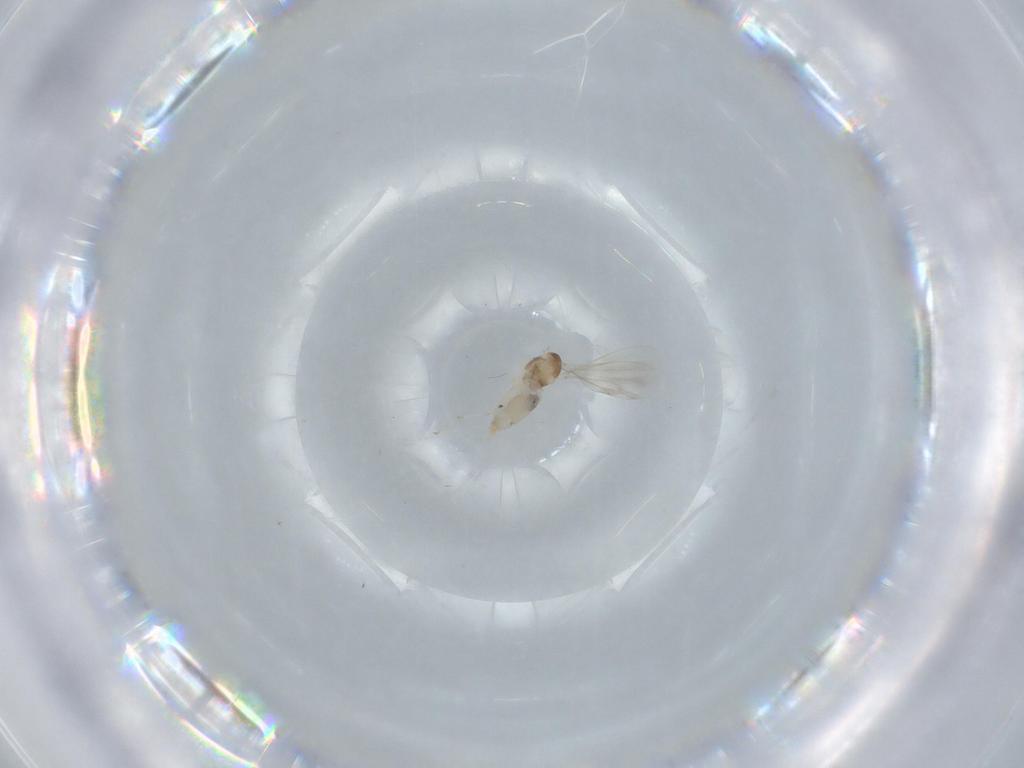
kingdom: Animalia
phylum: Arthropoda
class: Insecta
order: Diptera
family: Cecidomyiidae
